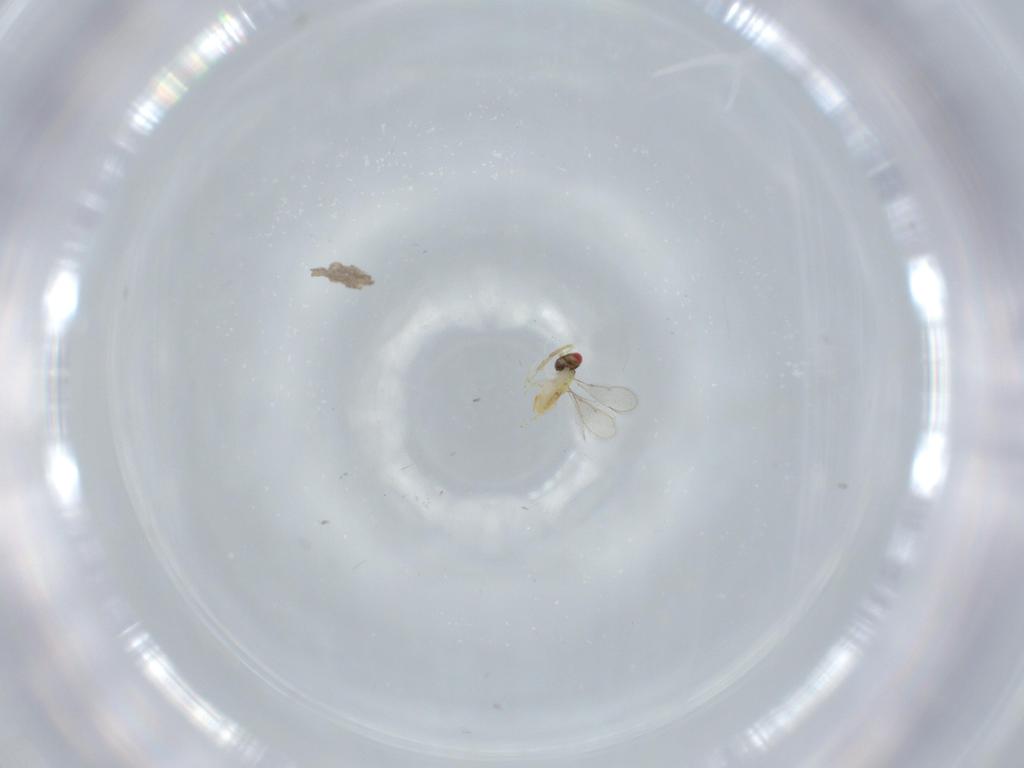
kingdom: Animalia
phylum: Arthropoda
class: Insecta
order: Hymenoptera
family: Aphelinidae
